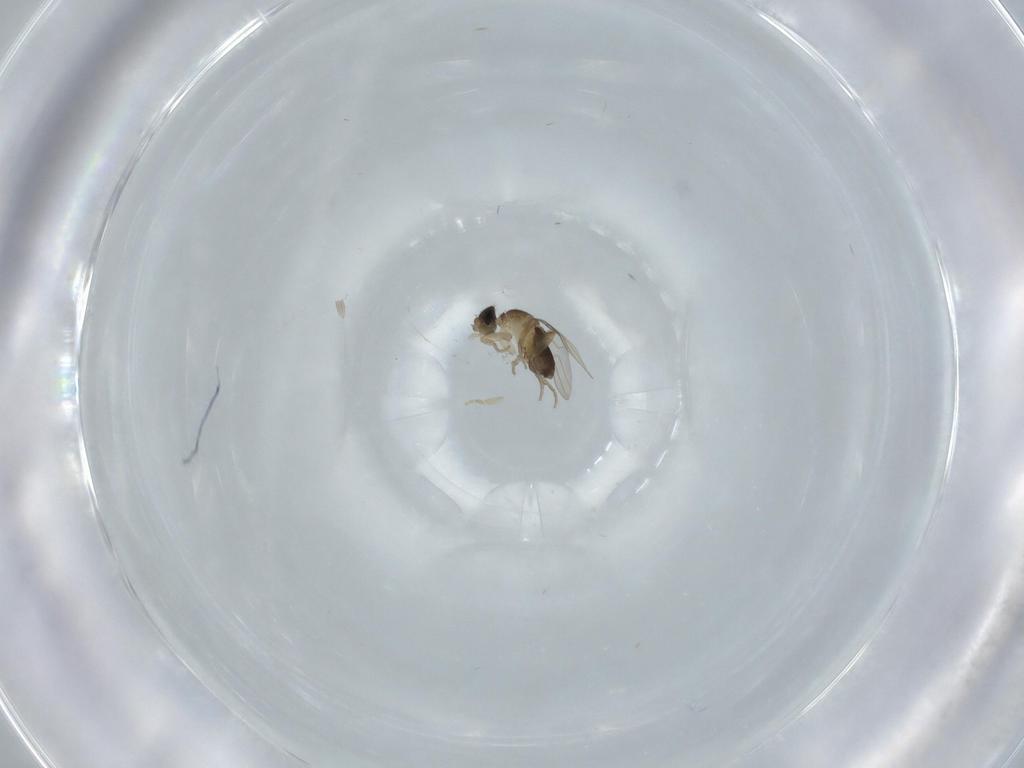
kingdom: Animalia
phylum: Arthropoda
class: Insecta
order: Diptera
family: Phoridae
